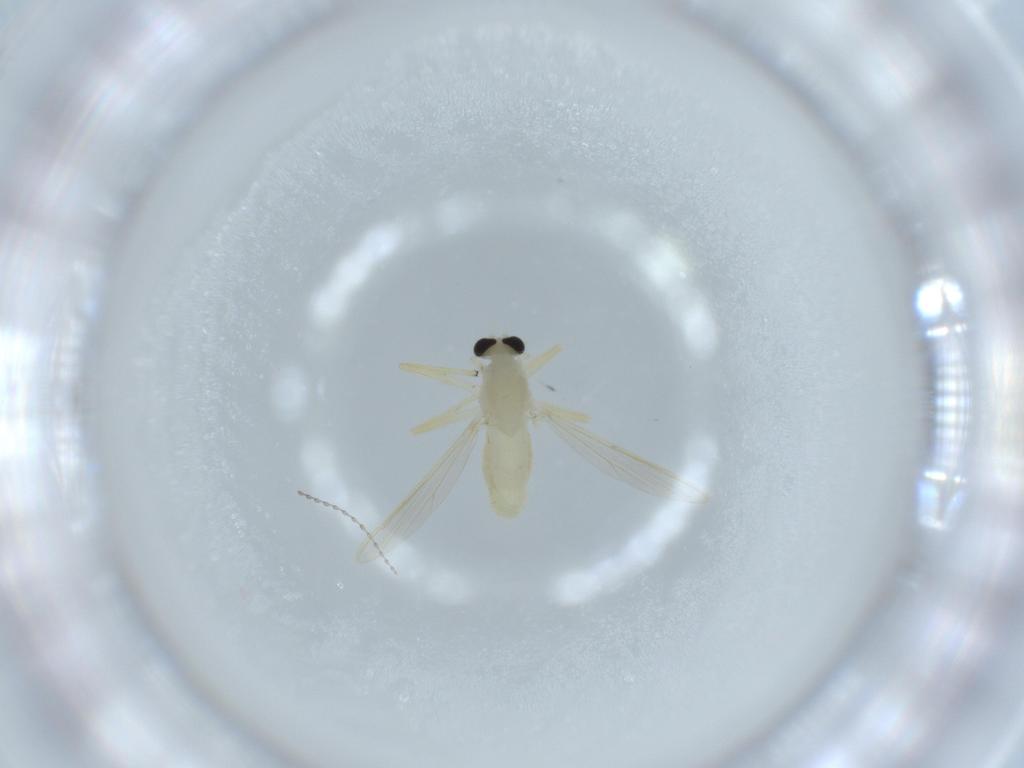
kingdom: Animalia
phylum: Arthropoda
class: Insecta
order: Diptera
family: Chironomidae
